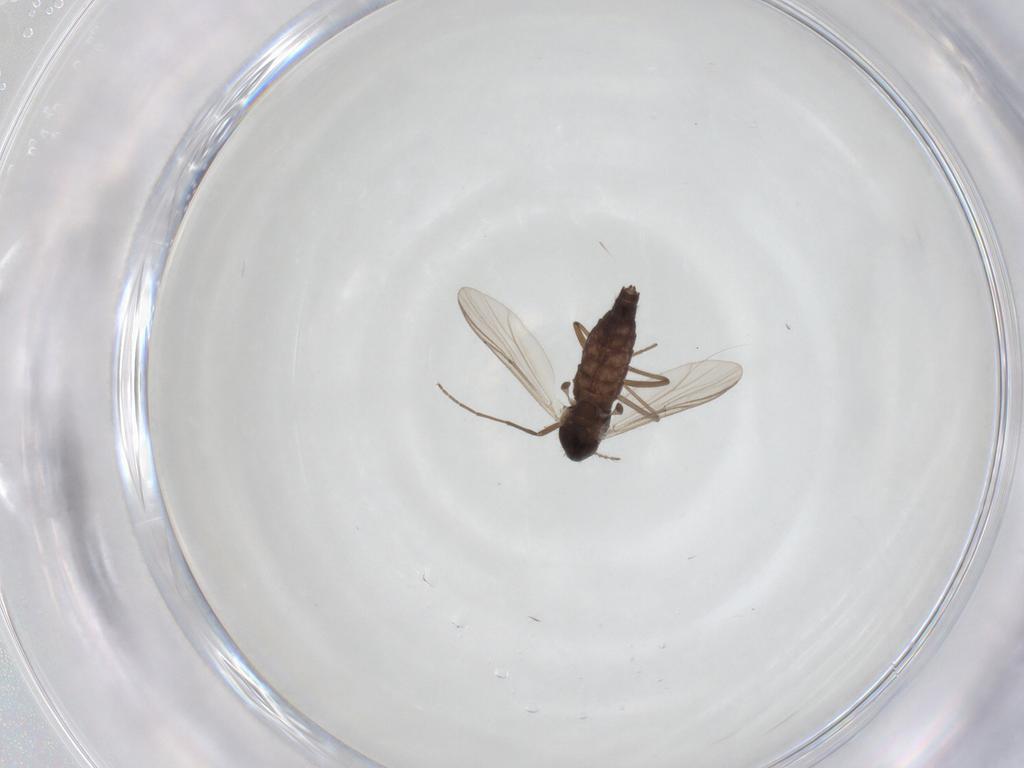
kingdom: Animalia
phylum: Arthropoda
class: Insecta
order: Diptera
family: Chironomidae
